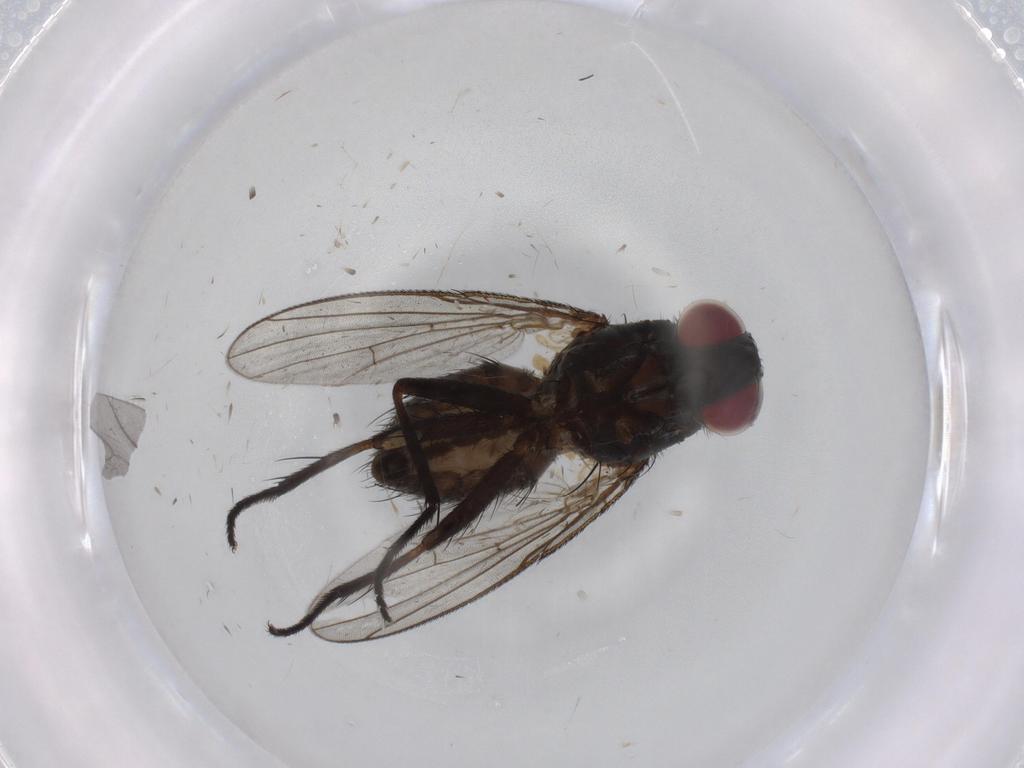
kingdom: Animalia
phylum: Arthropoda
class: Insecta
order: Diptera
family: Muscidae
